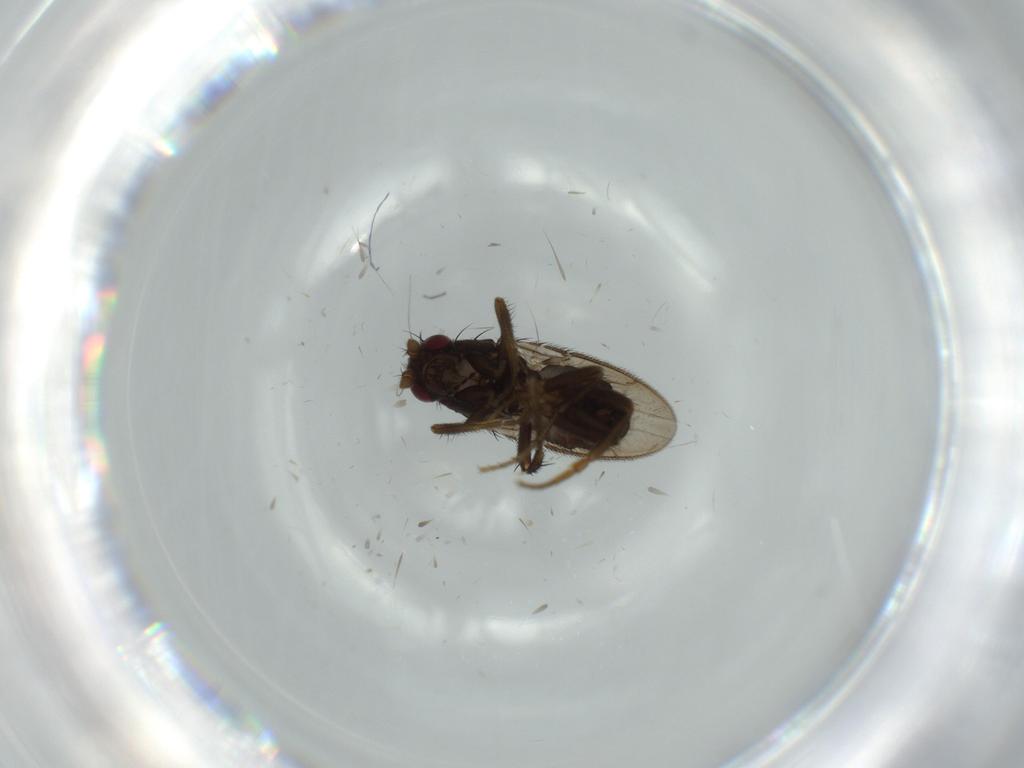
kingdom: Animalia
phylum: Arthropoda
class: Insecta
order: Diptera
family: Sphaeroceridae
